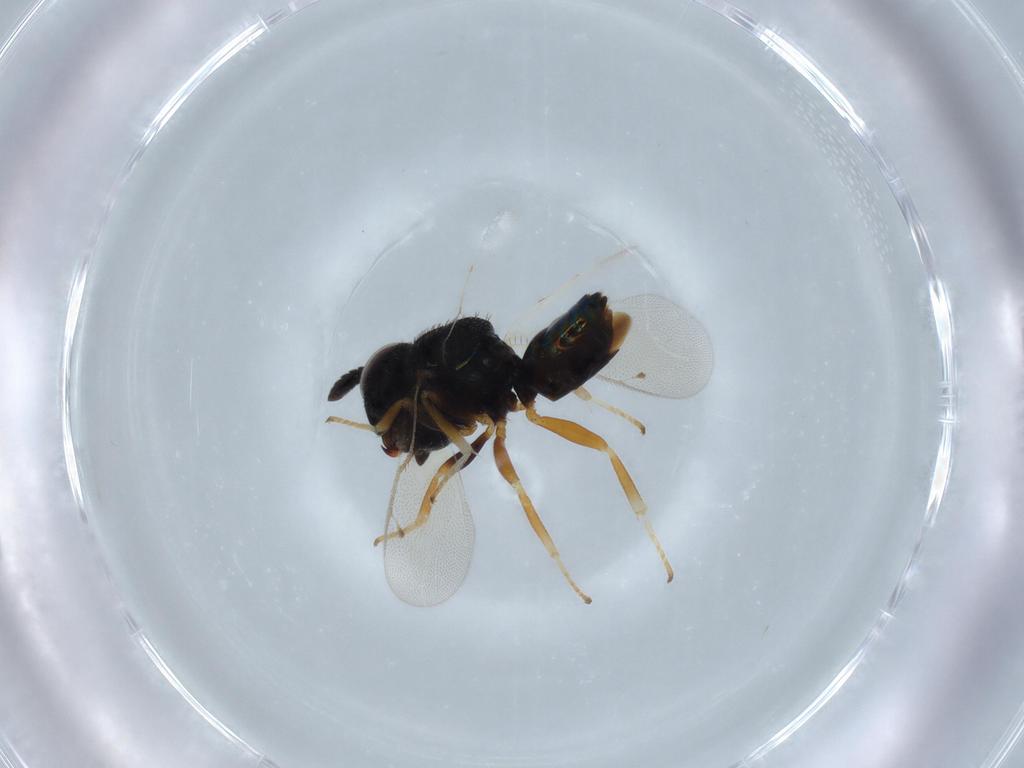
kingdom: Animalia
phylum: Arthropoda
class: Insecta
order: Hymenoptera
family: Agaonidae
